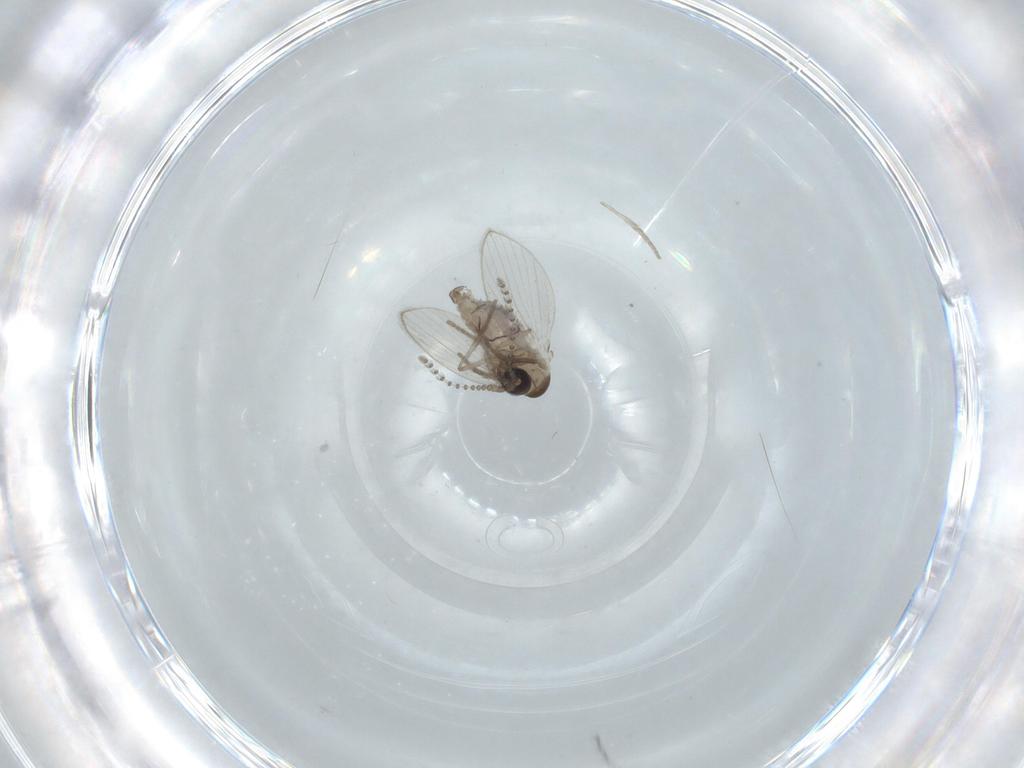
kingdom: Animalia
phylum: Arthropoda
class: Insecta
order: Diptera
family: Psychodidae
